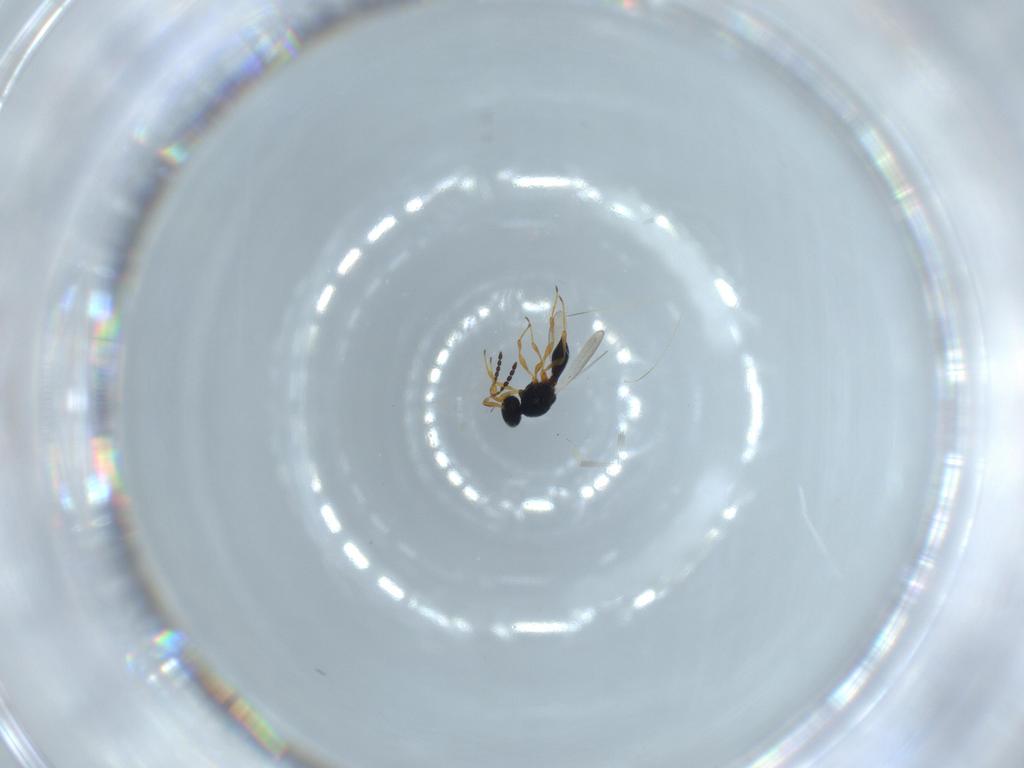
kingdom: Animalia
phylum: Arthropoda
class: Insecta
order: Hymenoptera
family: Platygastridae
